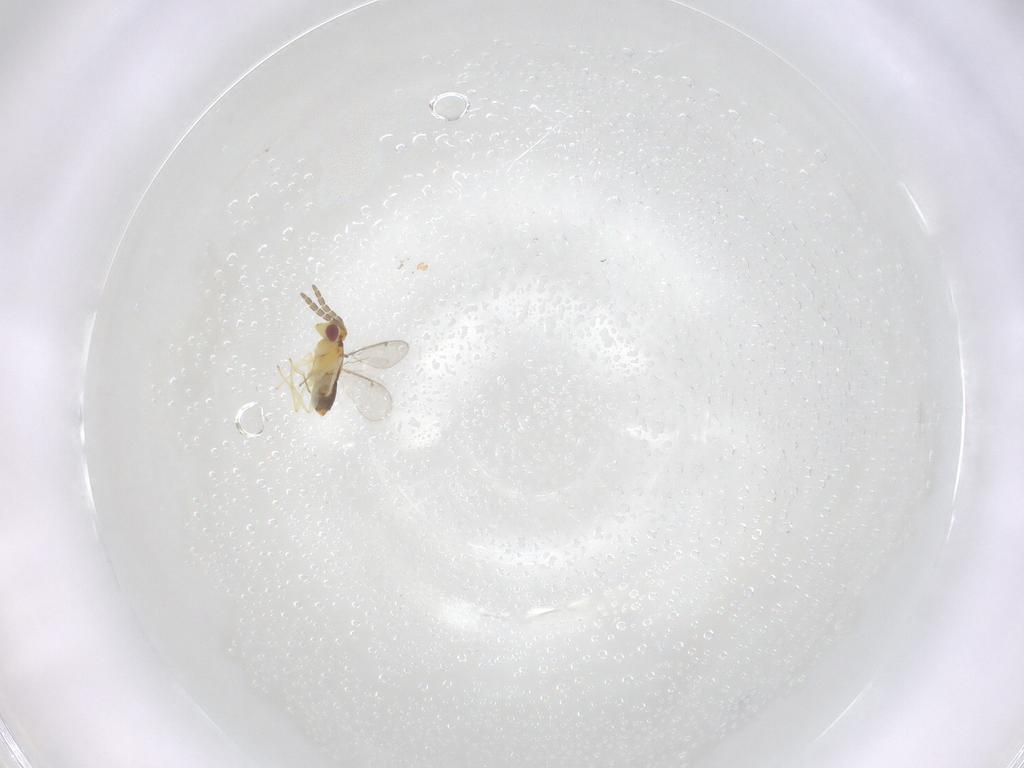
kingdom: Animalia
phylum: Arthropoda
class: Insecta
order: Hymenoptera
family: Aphelinidae
